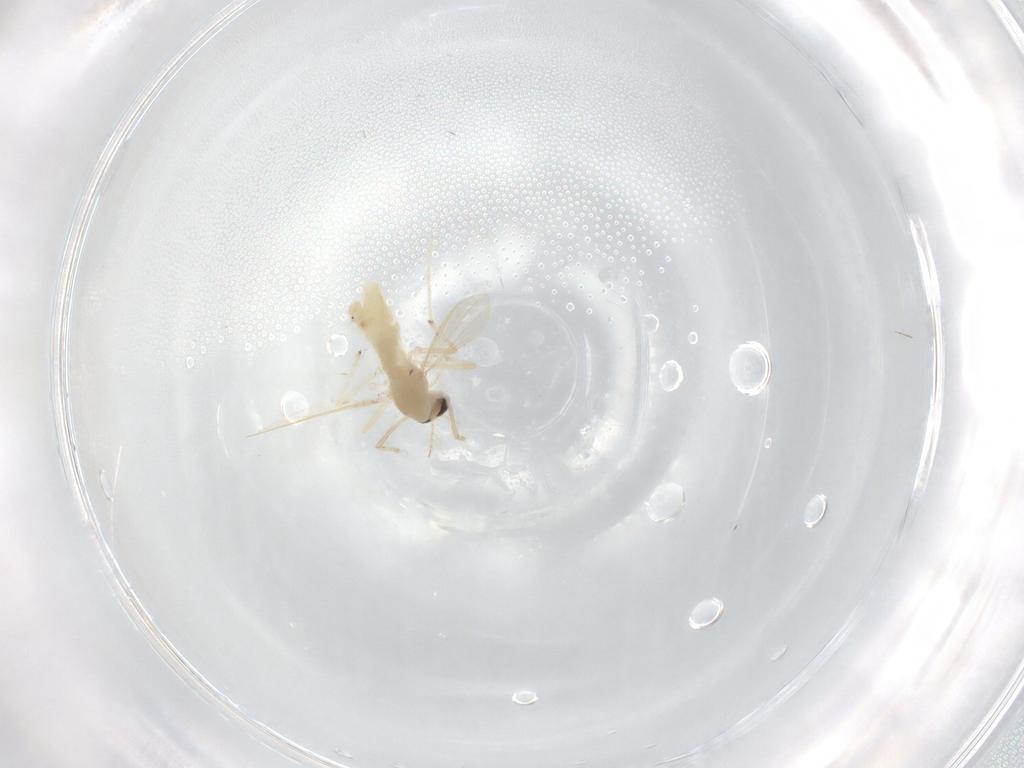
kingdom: Animalia
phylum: Arthropoda
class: Insecta
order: Diptera
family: Chironomidae
